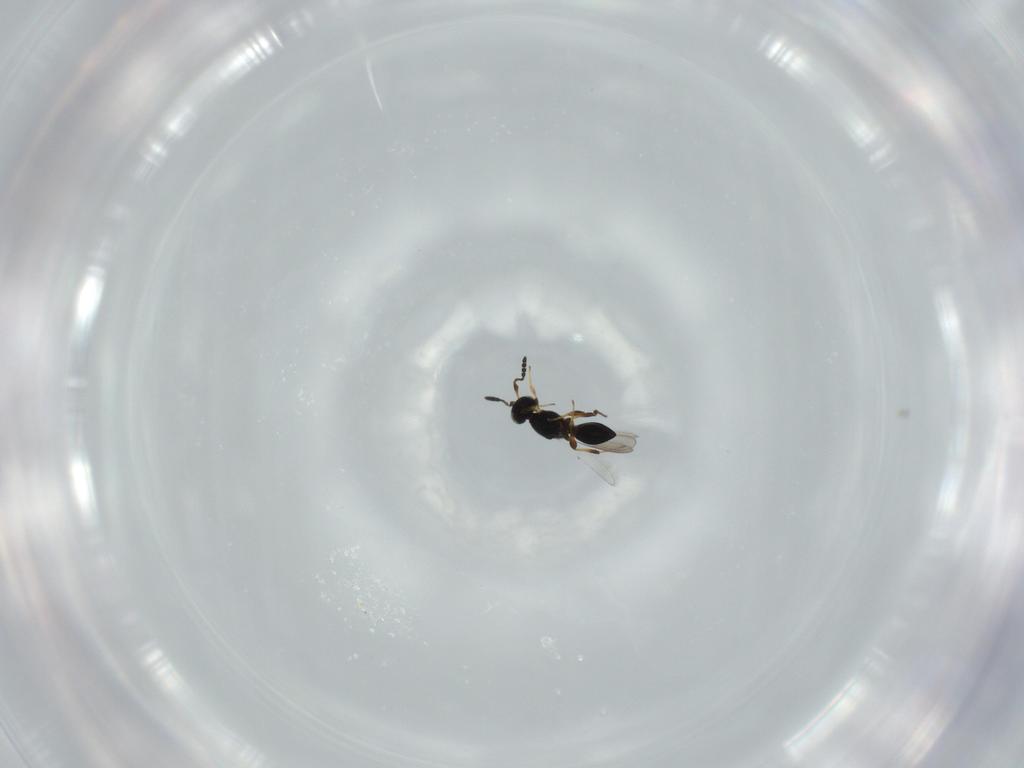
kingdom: Animalia
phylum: Arthropoda
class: Insecta
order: Hymenoptera
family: Platygastridae
